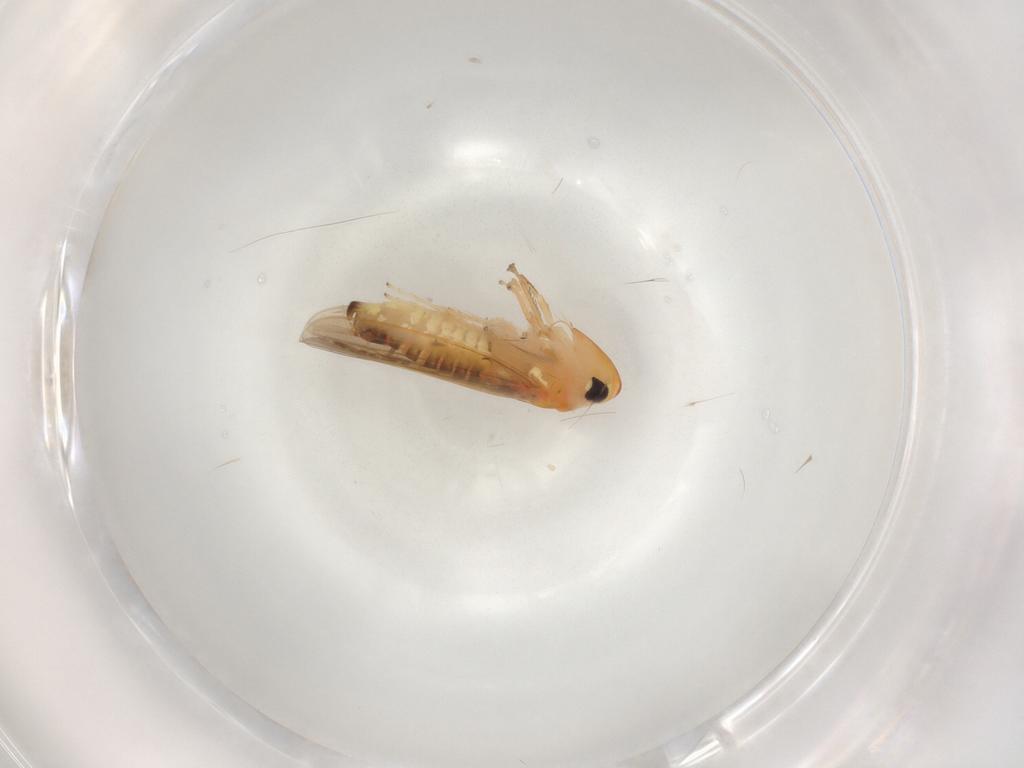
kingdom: Animalia
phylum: Arthropoda
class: Insecta
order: Hemiptera
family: Cicadellidae
